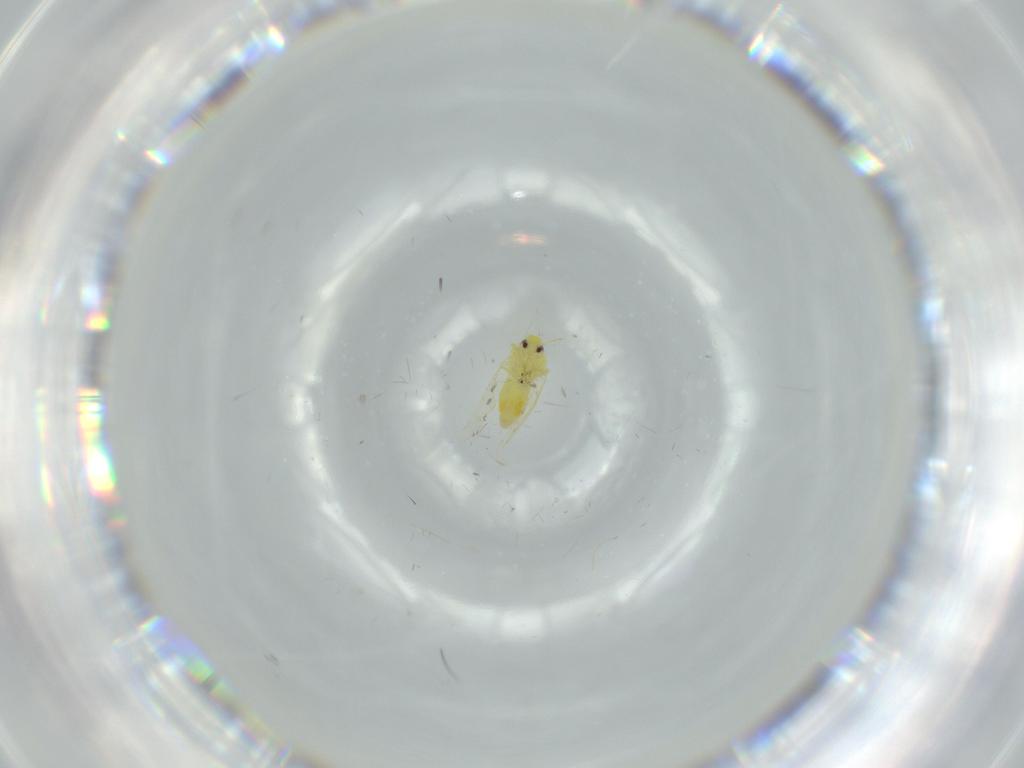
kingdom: Animalia
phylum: Arthropoda
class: Insecta
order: Hemiptera
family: Aleyrodidae
